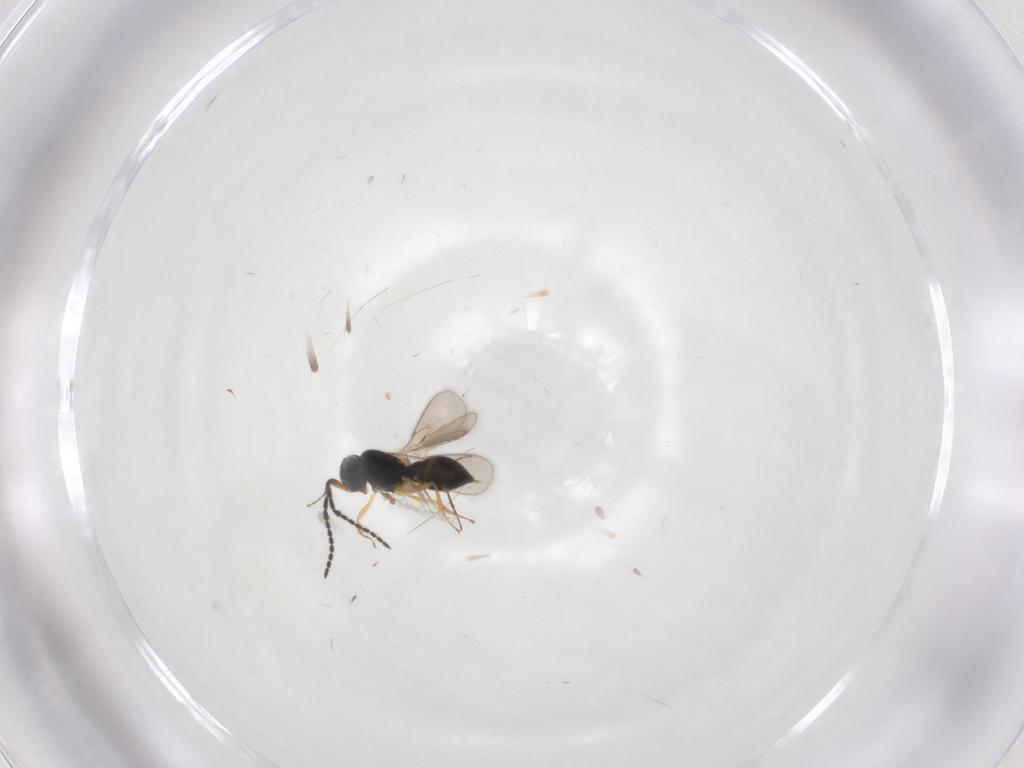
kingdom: Animalia
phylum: Arthropoda
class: Insecta
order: Hymenoptera
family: Scelionidae
